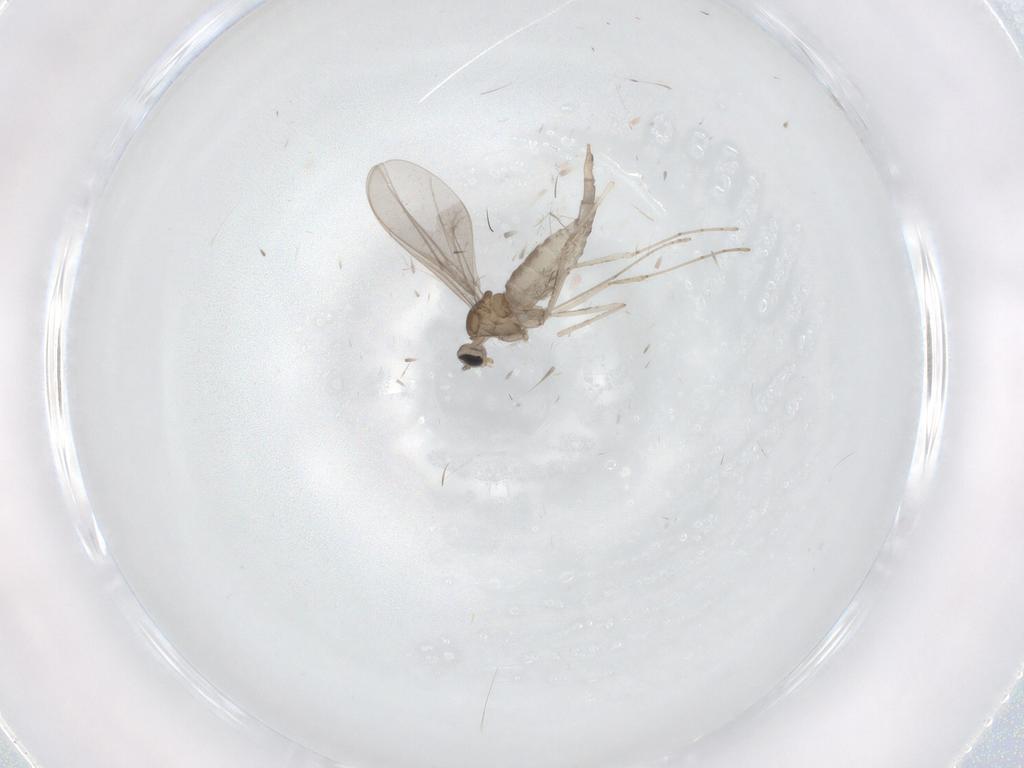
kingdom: Animalia
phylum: Arthropoda
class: Insecta
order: Diptera
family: Cecidomyiidae
